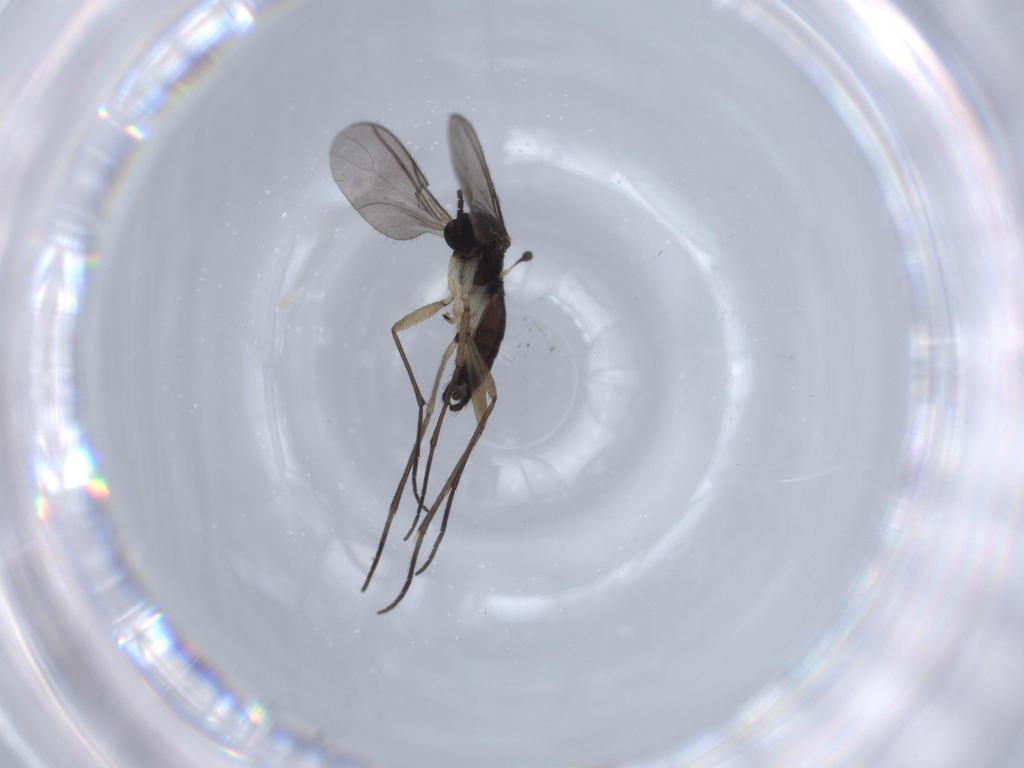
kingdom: Animalia
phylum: Arthropoda
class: Insecta
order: Diptera
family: Sciaridae
